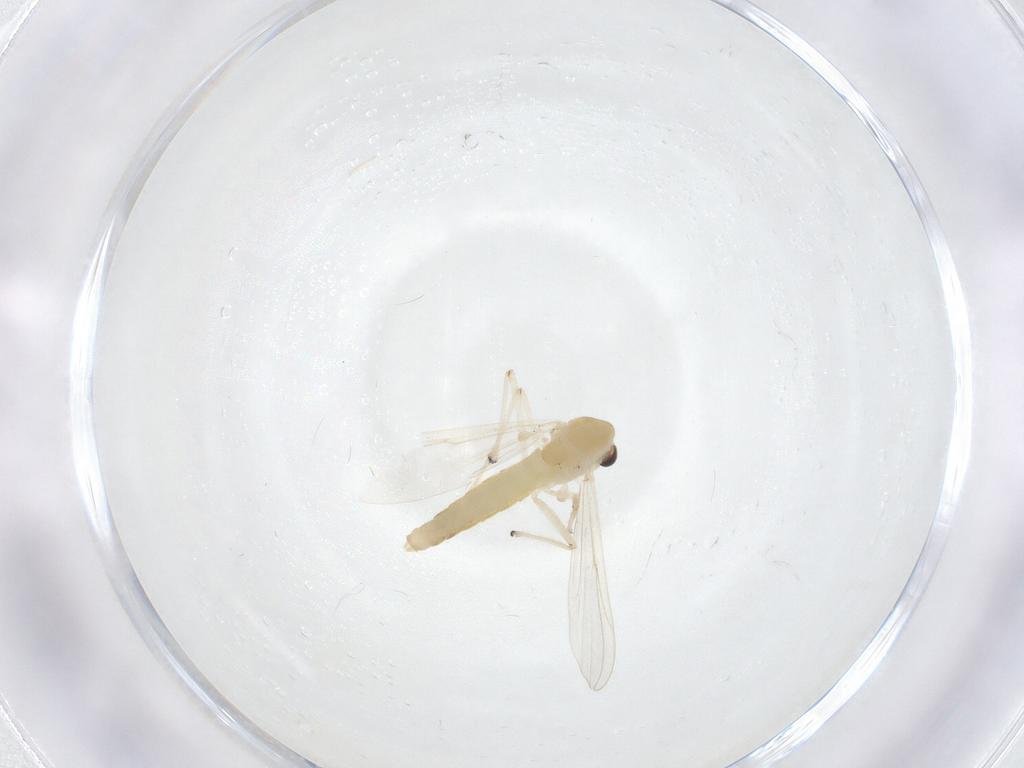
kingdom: Animalia
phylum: Arthropoda
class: Insecta
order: Diptera
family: Chironomidae
